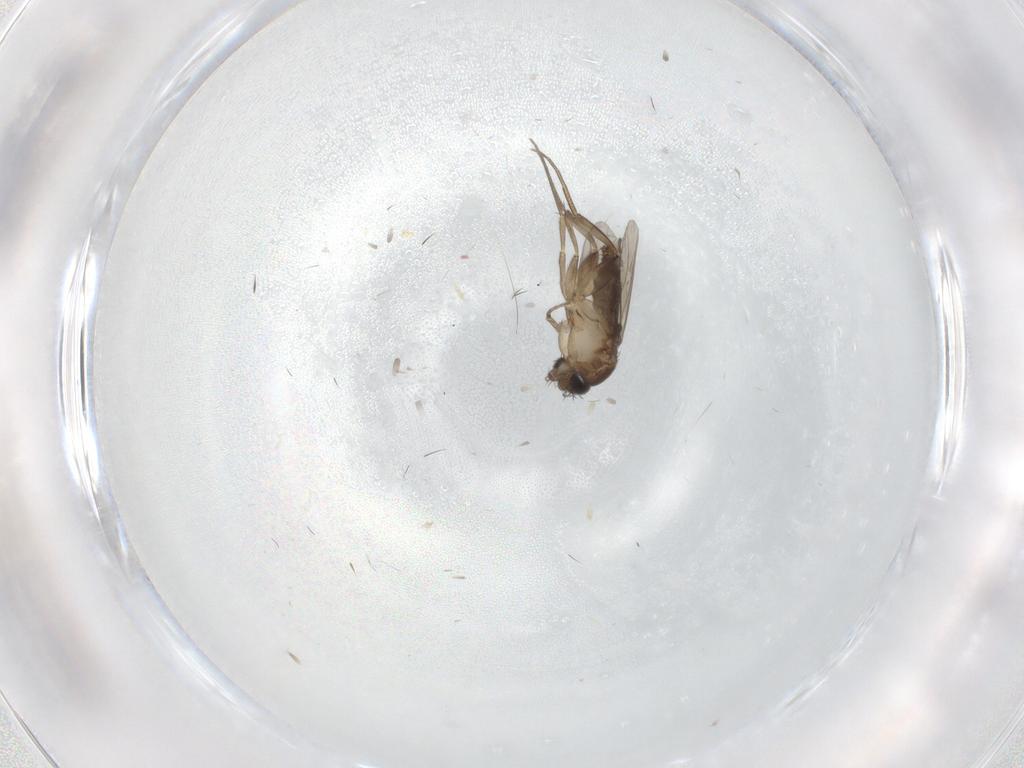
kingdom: Animalia
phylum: Arthropoda
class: Insecta
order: Diptera
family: Phoridae
